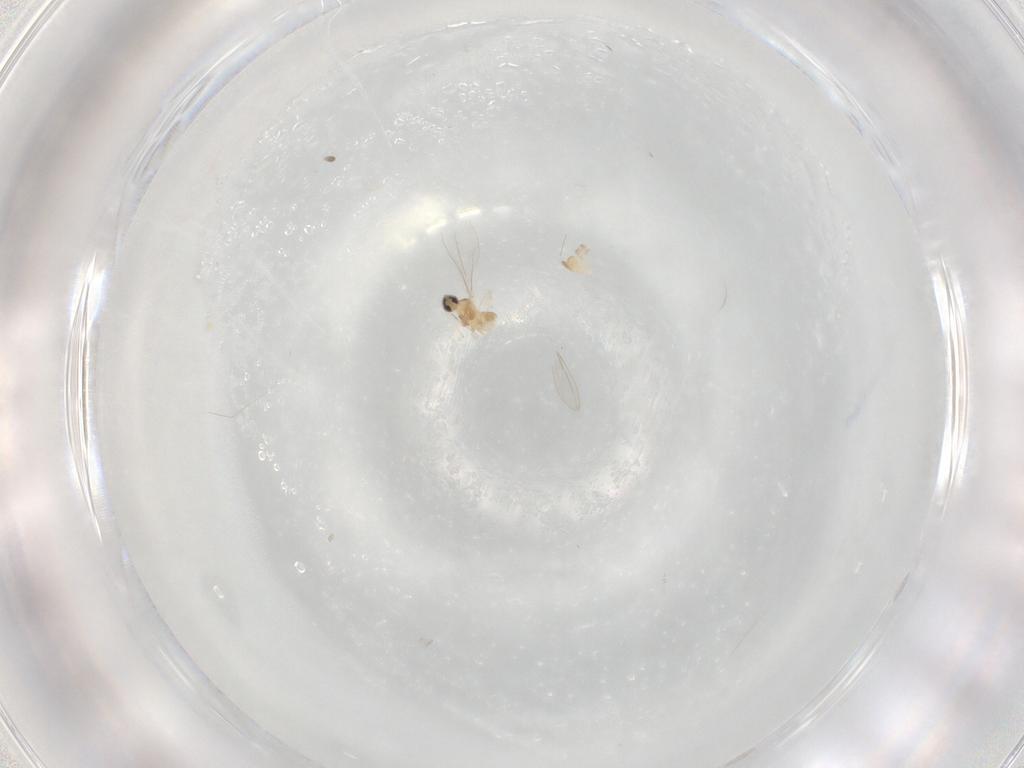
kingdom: Animalia
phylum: Arthropoda
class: Insecta
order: Diptera
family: Cecidomyiidae
